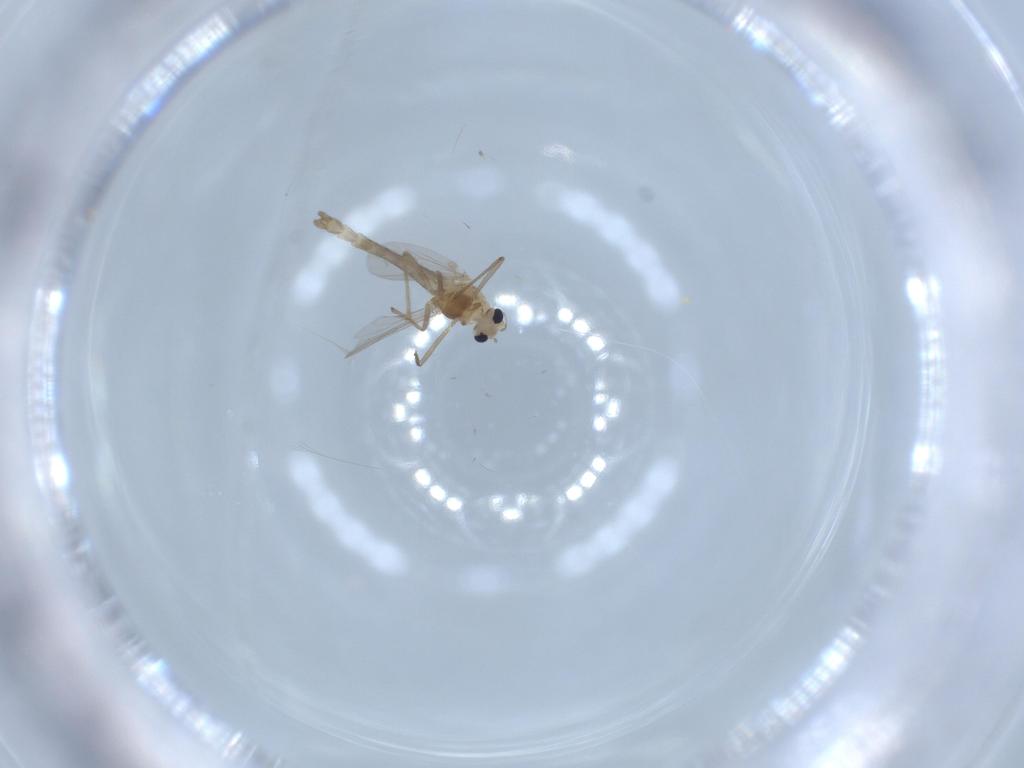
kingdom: Animalia
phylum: Arthropoda
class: Insecta
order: Diptera
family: Chironomidae
